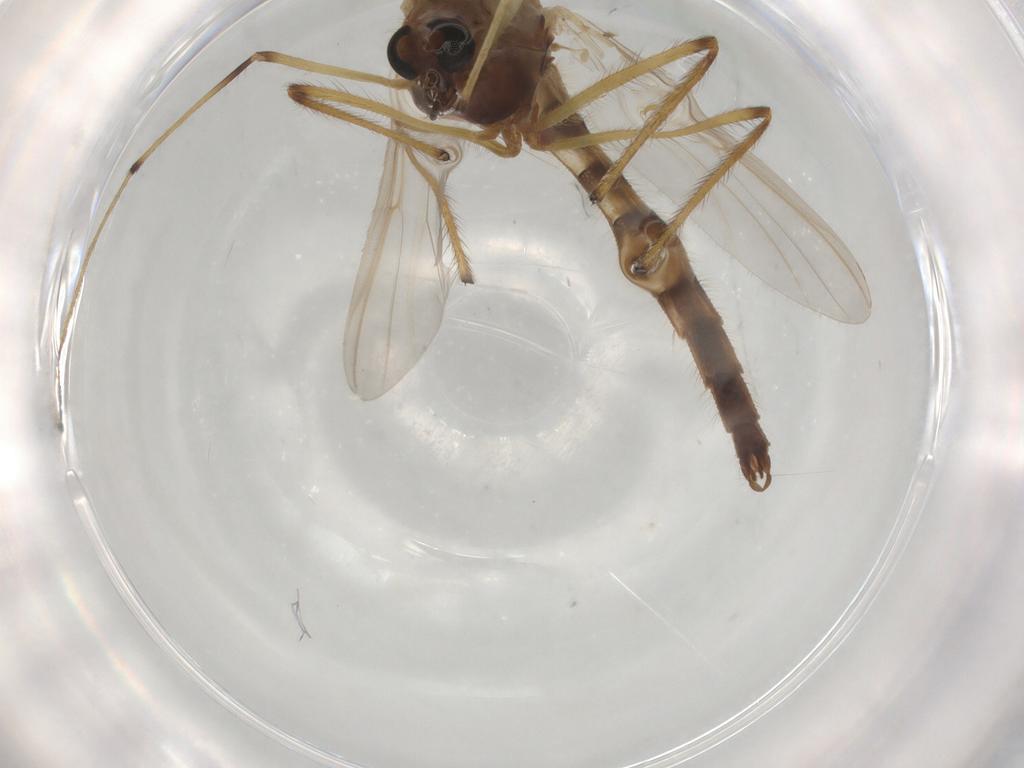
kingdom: Animalia
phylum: Arthropoda
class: Insecta
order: Diptera
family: Chironomidae
